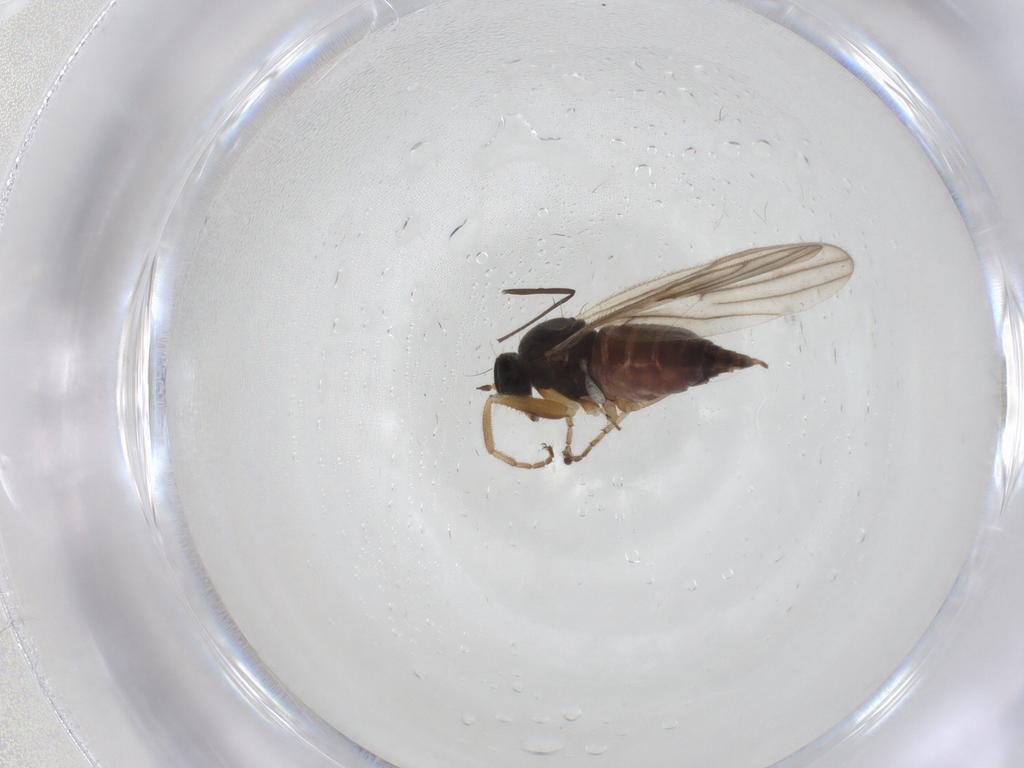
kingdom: Animalia
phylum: Arthropoda
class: Insecta
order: Diptera
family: Hybotidae
